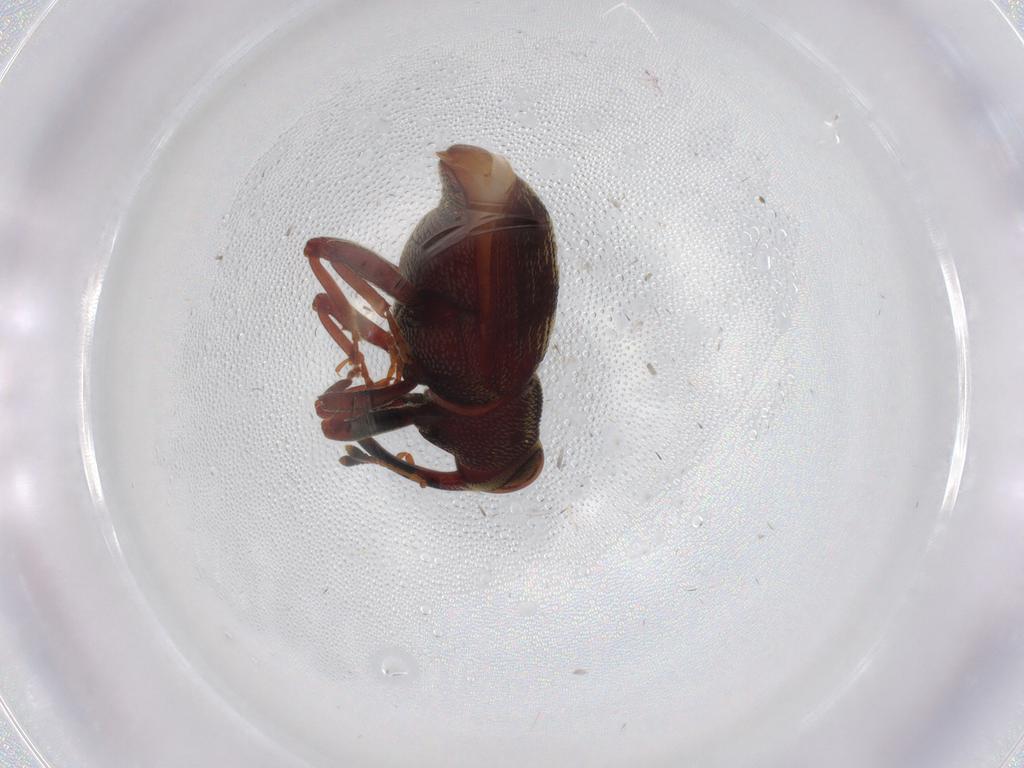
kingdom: Animalia
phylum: Arthropoda
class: Insecta
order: Coleoptera
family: Curculionidae
